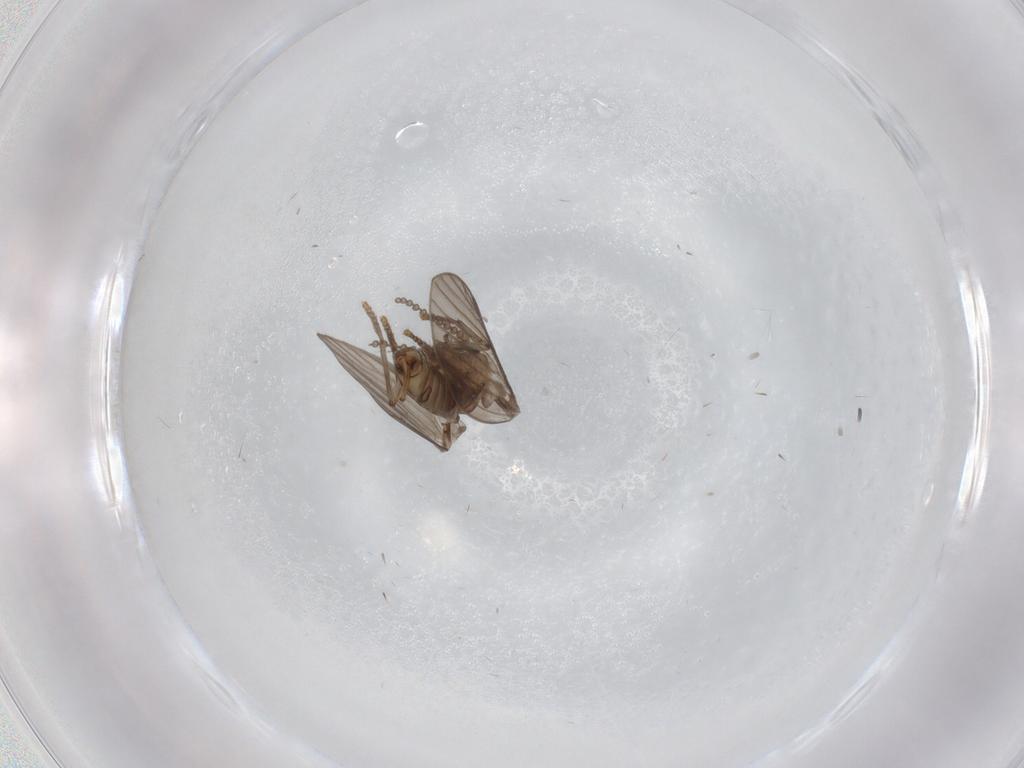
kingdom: Animalia
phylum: Arthropoda
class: Insecta
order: Diptera
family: Psychodidae
